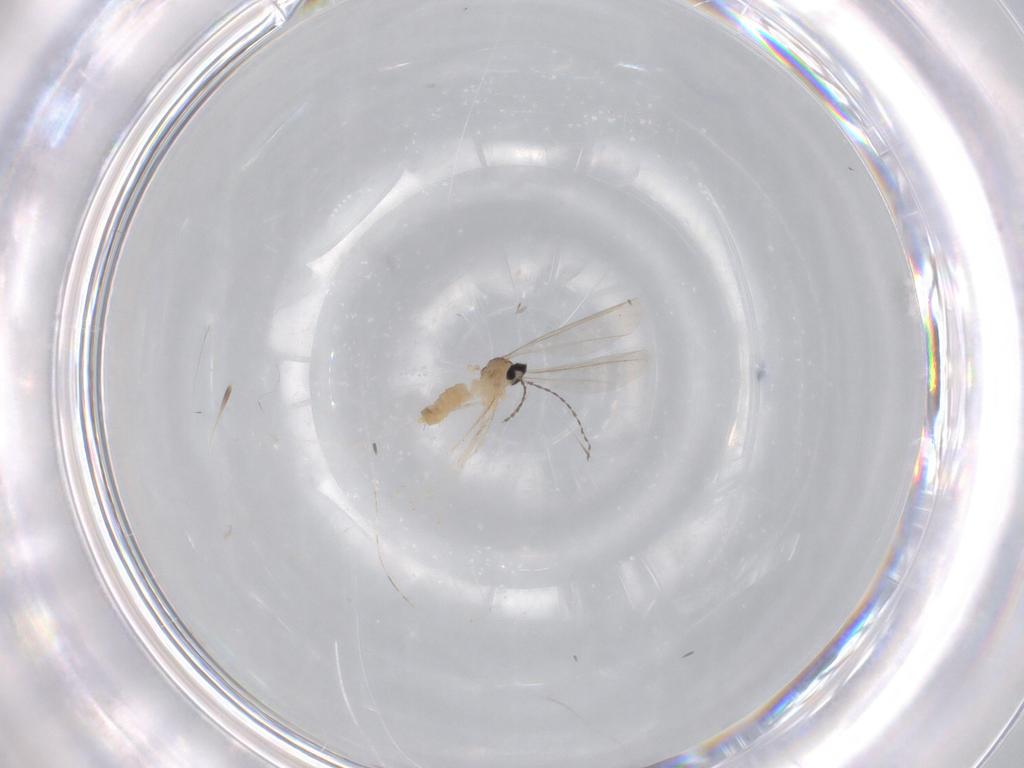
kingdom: Animalia
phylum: Arthropoda
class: Insecta
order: Diptera
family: Cecidomyiidae
